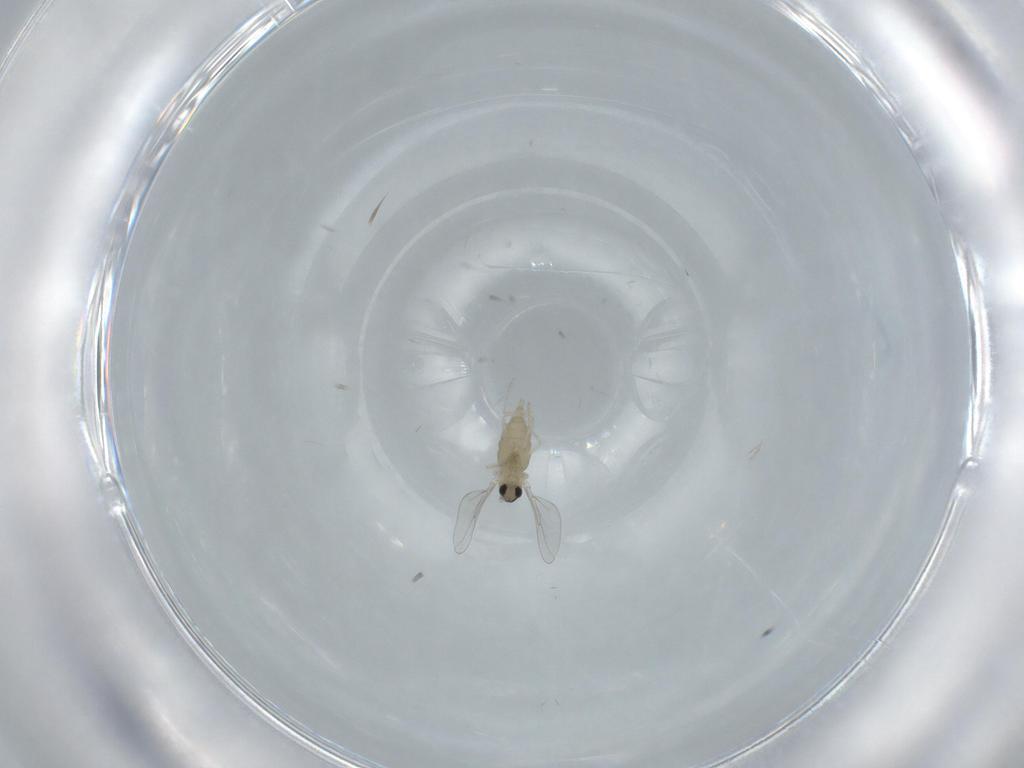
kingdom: Animalia
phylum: Arthropoda
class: Insecta
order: Diptera
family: Cecidomyiidae
